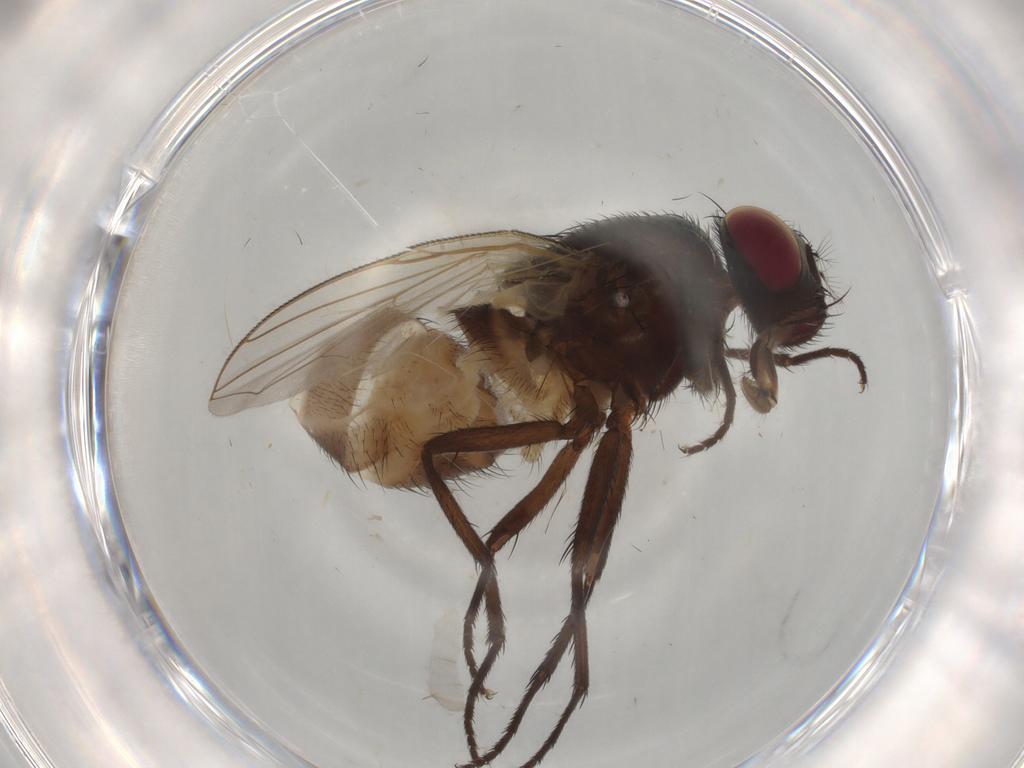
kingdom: Animalia
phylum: Arthropoda
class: Insecta
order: Diptera
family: Muscidae
